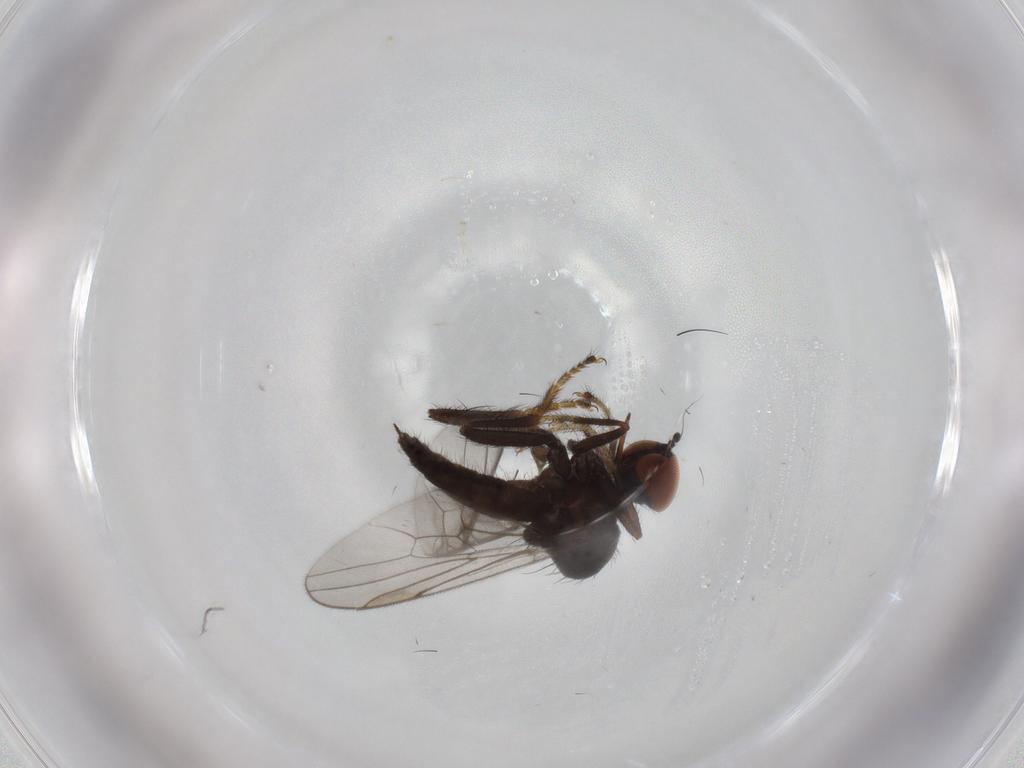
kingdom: Animalia
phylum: Arthropoda
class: Insecta
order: Diptera
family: Hybotidae
